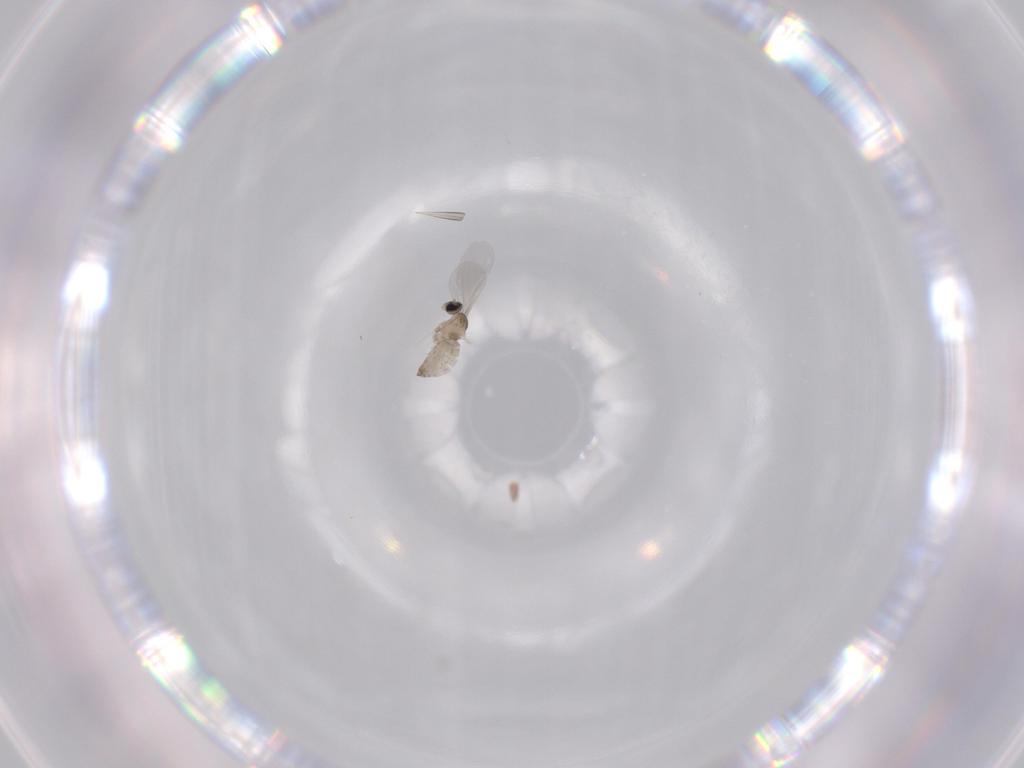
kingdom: Animalia
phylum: Arthropoda
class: Insecta
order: Diptera
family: Cecidomyiidae
